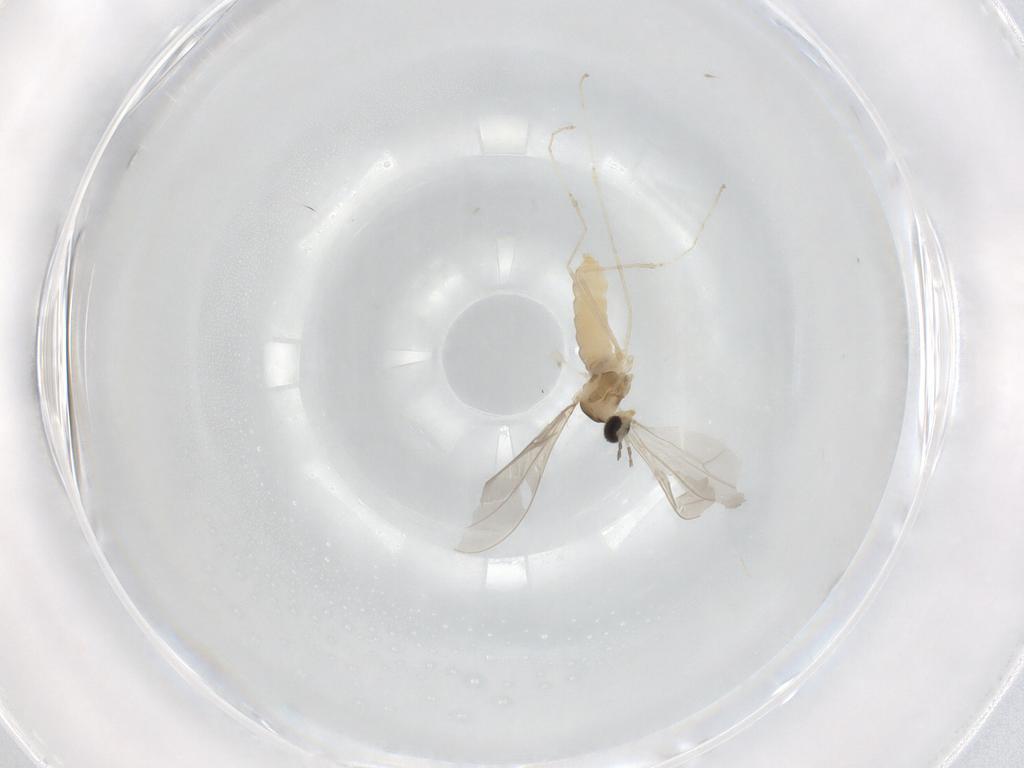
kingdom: Animalia
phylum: Arthropoda
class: Insecta
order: Diptera
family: Cecidomyiidae
